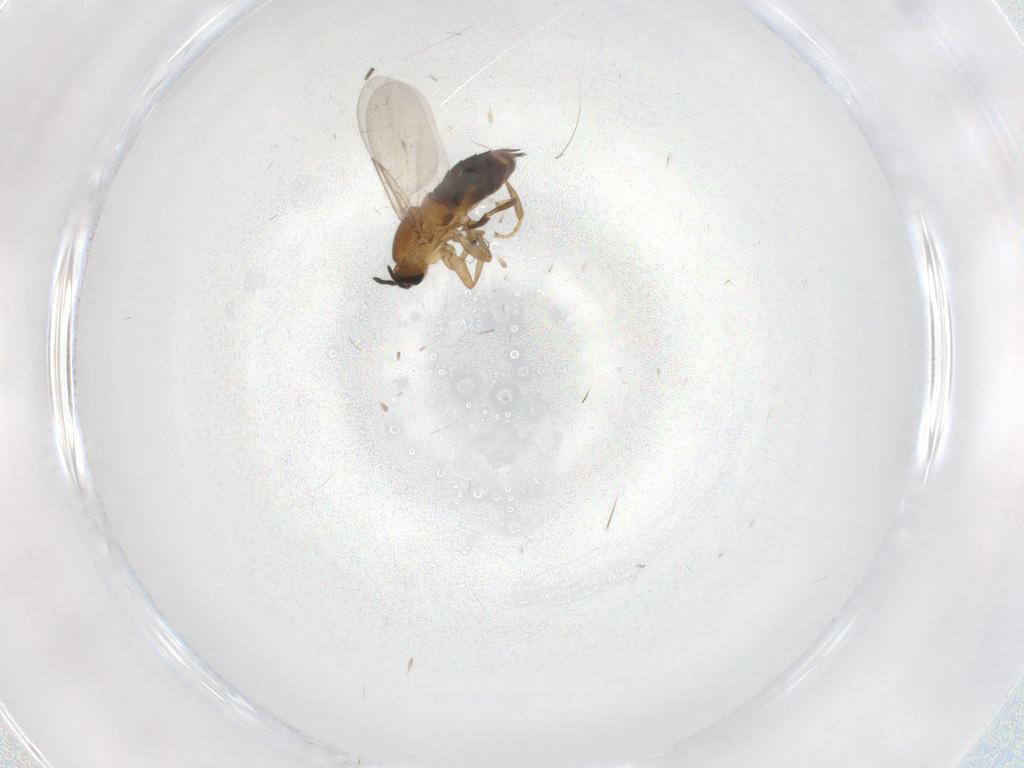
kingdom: Animalia
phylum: Arthropoda
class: Insecta
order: Diptera
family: Scatopsidae
